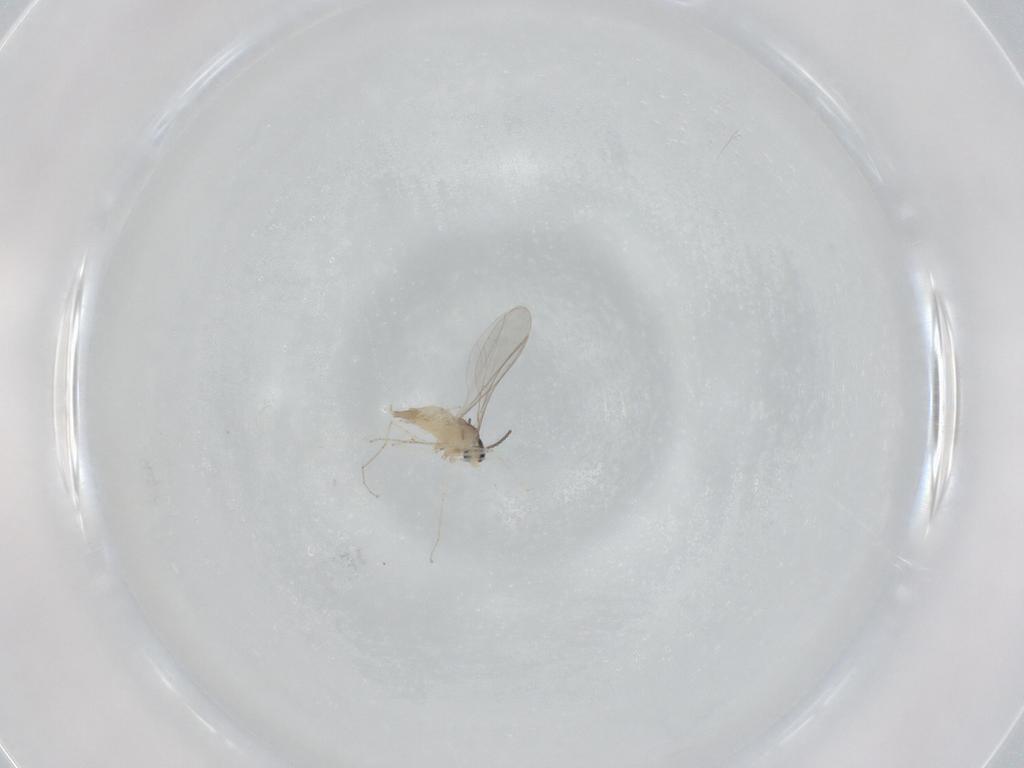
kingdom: Animalia
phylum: Arthropoda
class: Insecta
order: Diptera
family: Cecidomyiidae
